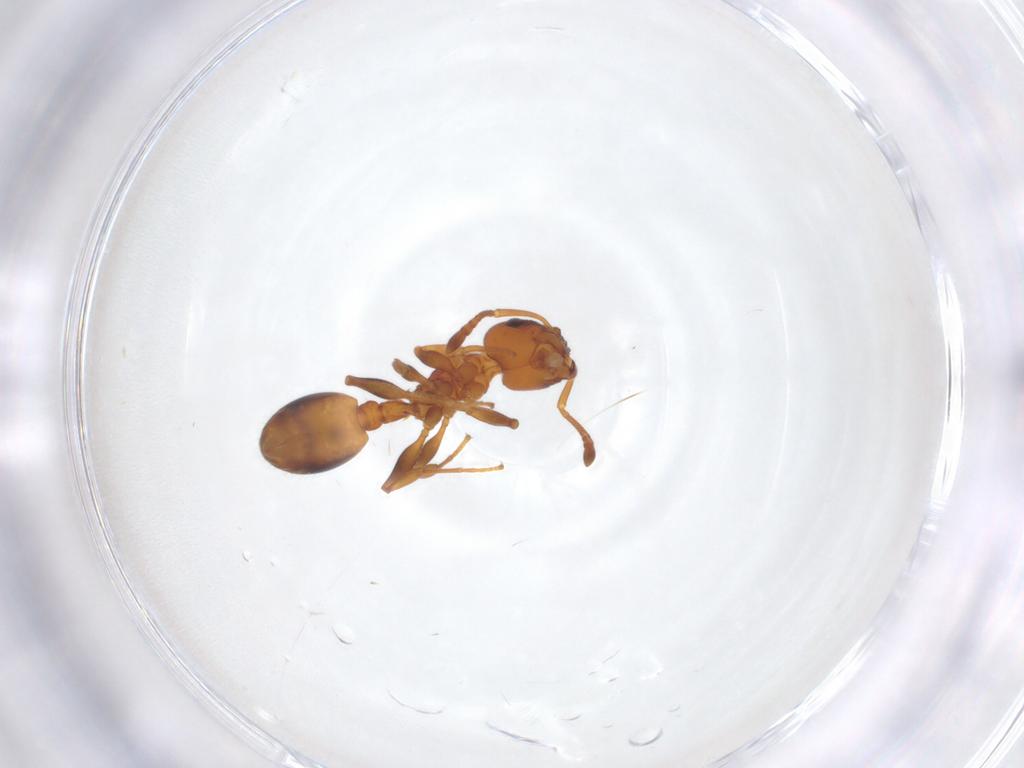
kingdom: Animalia
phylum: Arthropoda
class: Insecta
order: Hymenoptera
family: Formicidae
